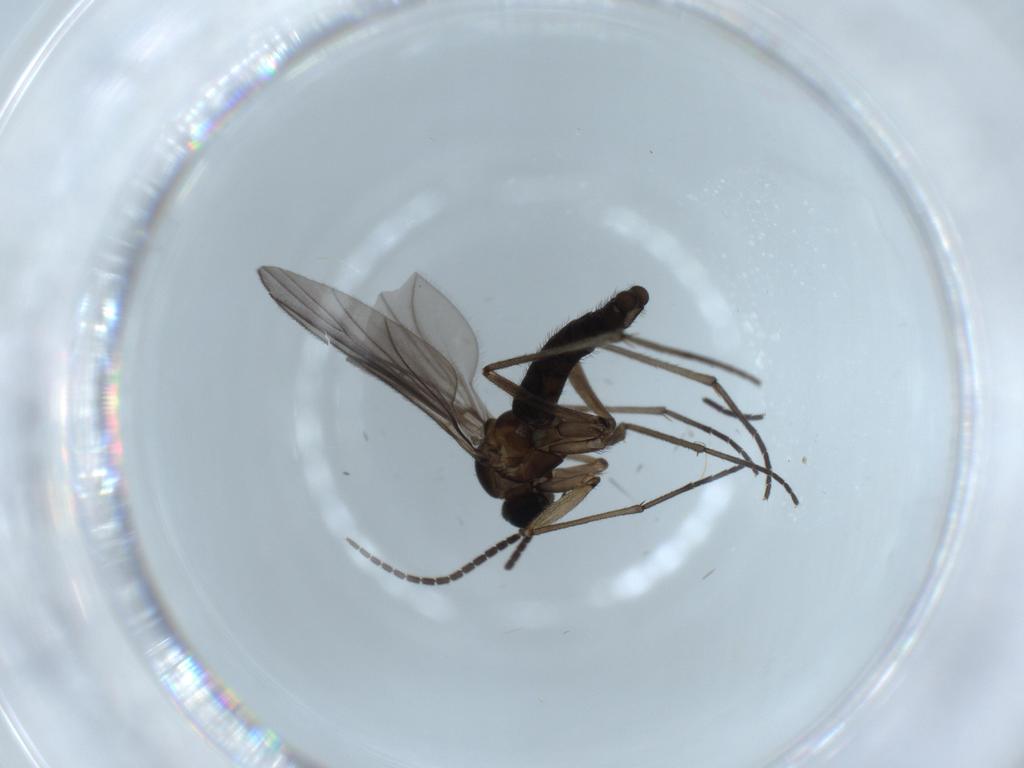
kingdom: Animalia
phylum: Arthropoda
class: Insecta
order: Diptera
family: Sciaridae
